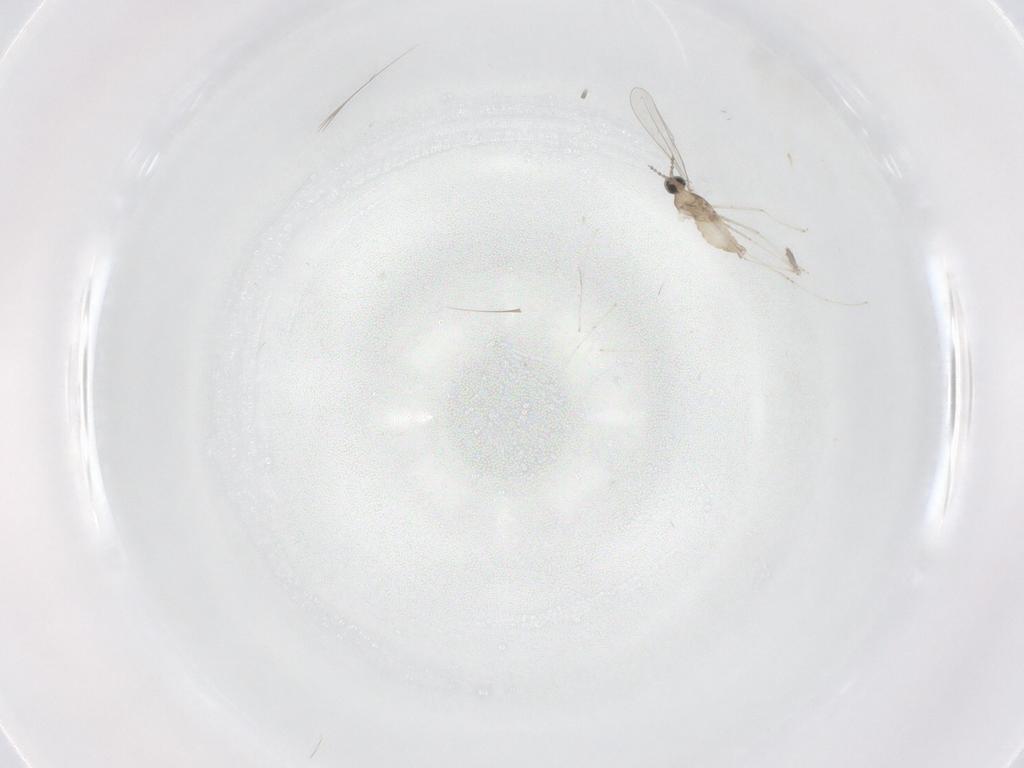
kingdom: Animalia
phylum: Arthropoda
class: Insecta
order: Diptera
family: Cecidomyiidae
